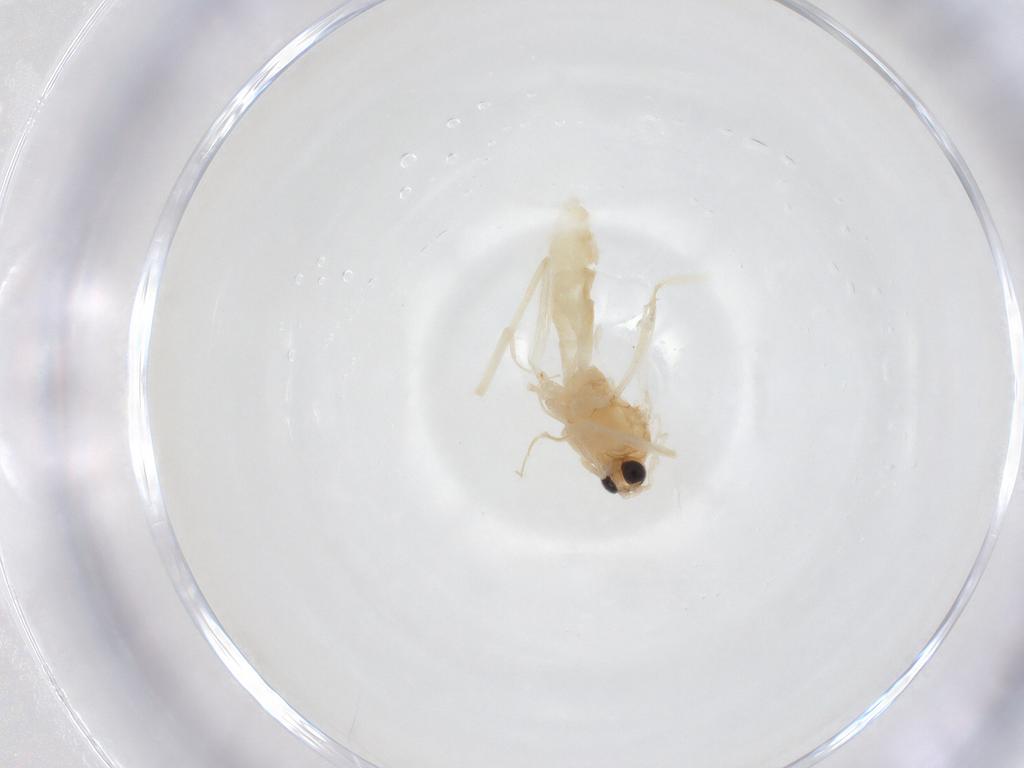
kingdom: Animalia
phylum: Arthropoda
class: Insecta
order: Diptera
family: Sciaridae
